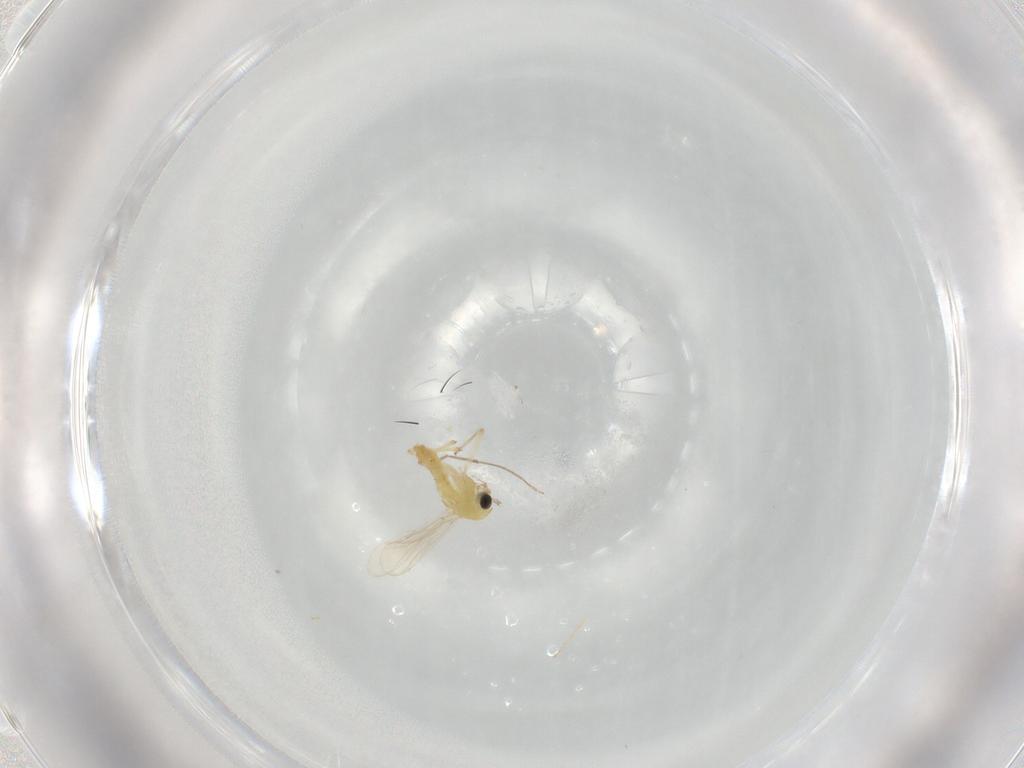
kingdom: Animalia
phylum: Arthropoda
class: Insecta
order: Diptera
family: Chironomidae
